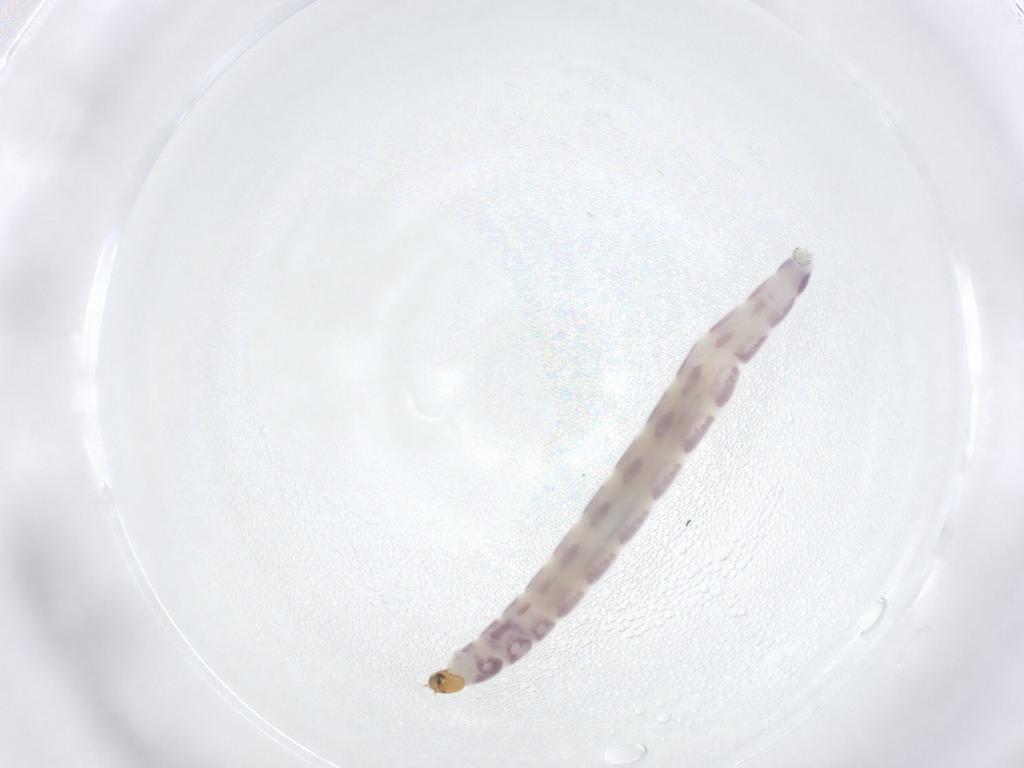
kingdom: Animalia
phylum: Arthropoda
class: Insecta
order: Diptera
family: Chironomidae
